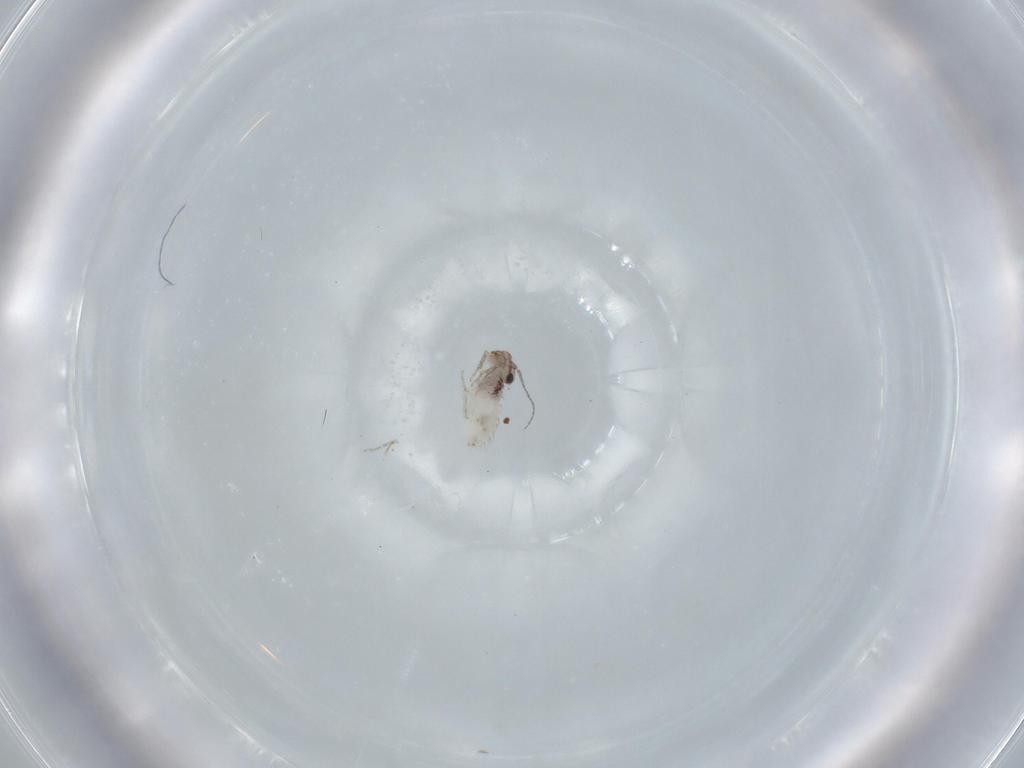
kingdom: Animalia
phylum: Arthropoda
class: Insecta
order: Psocodea
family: Lepidopsocidae
